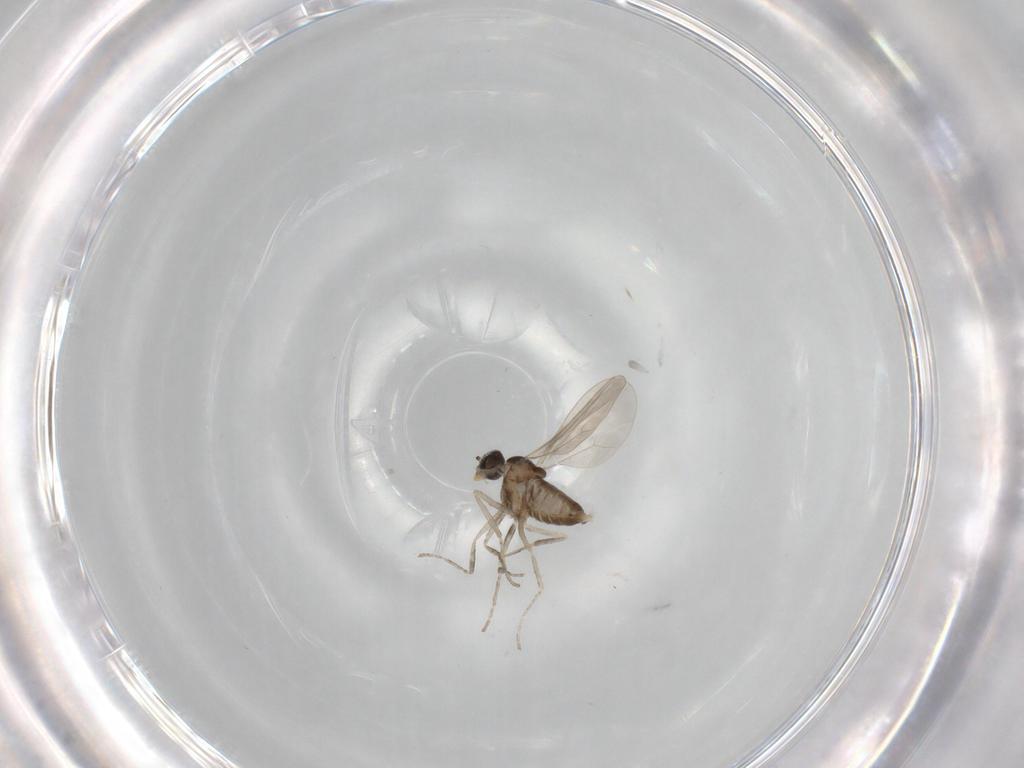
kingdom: Animalia
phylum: Arthropoda
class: Insecta
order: Diptera
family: Cecidomyiidae
